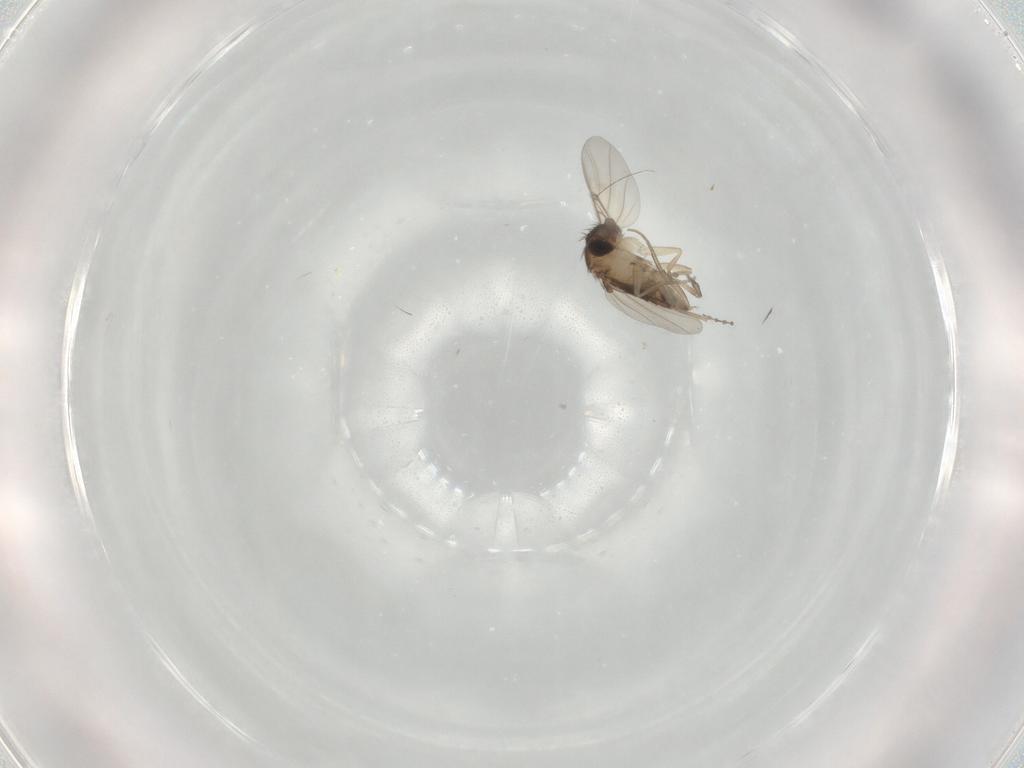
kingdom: Animalia
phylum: Arthropoda
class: Insecta
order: Diptera
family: Phoridae
